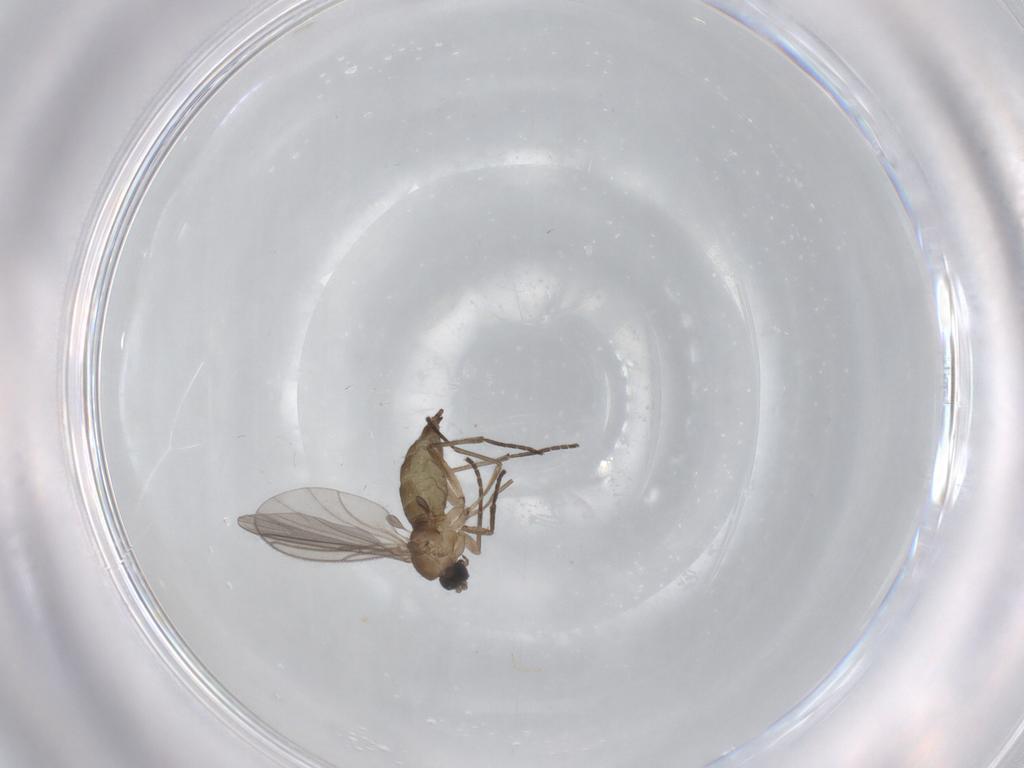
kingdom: Animalia
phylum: Arthropoda
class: Insecta
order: Diptera
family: Sciaridae
